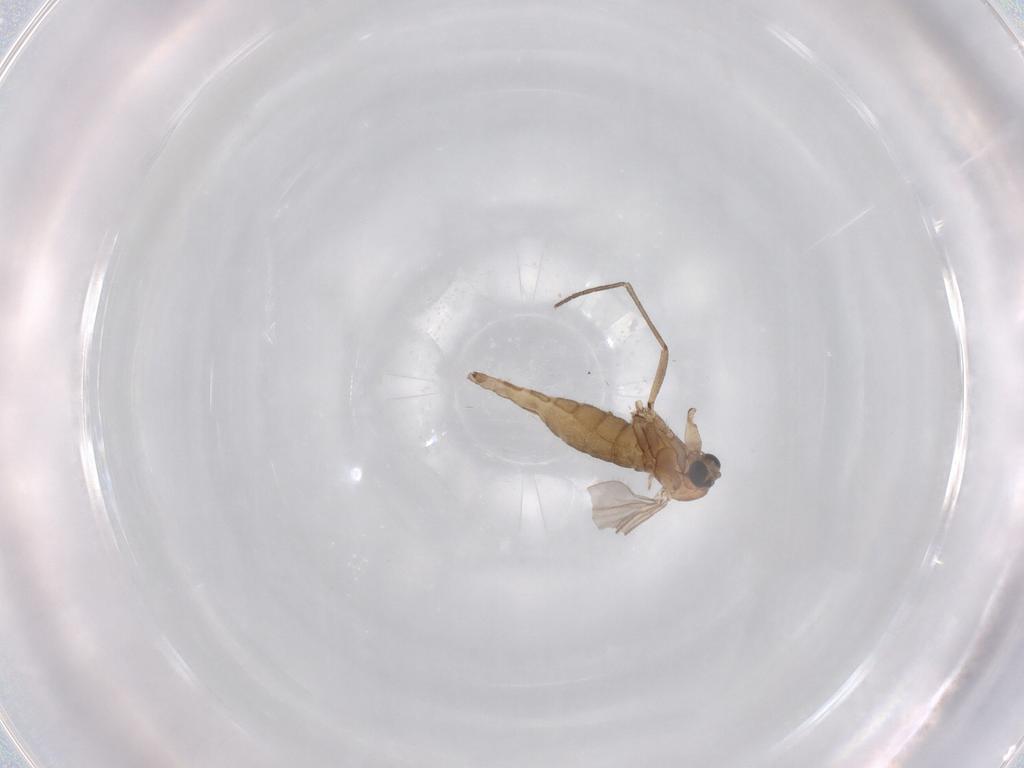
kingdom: Animalia
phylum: Arthropoda
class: Insecta
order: Diptera
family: Sciaridae
